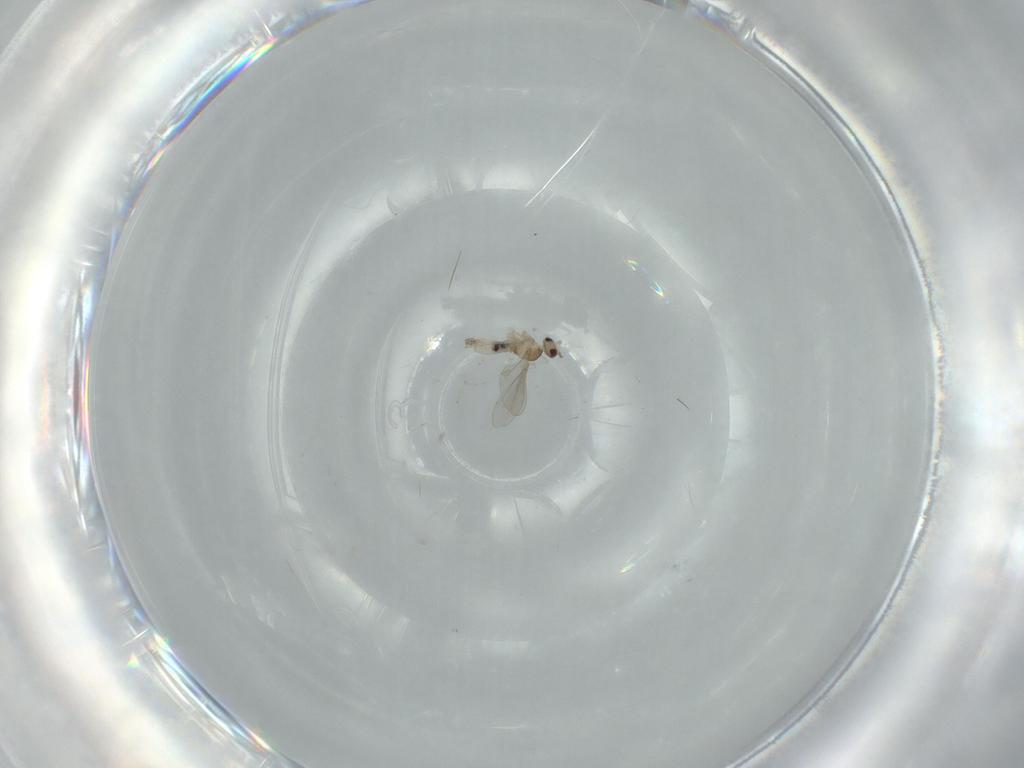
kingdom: Animalia
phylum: Arthropoda
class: Insecta
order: Diptera
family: Chironomidae
